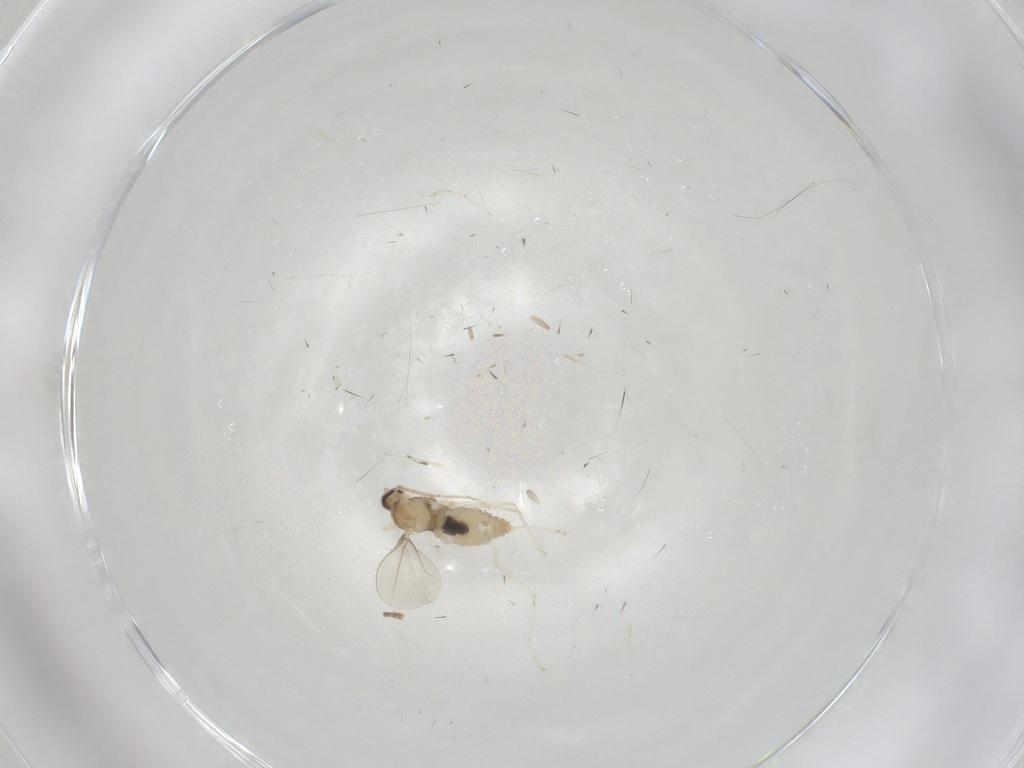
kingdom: Animalia
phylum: Arthropoda
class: Insecta
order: Diptera
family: Cecidomyiidae
